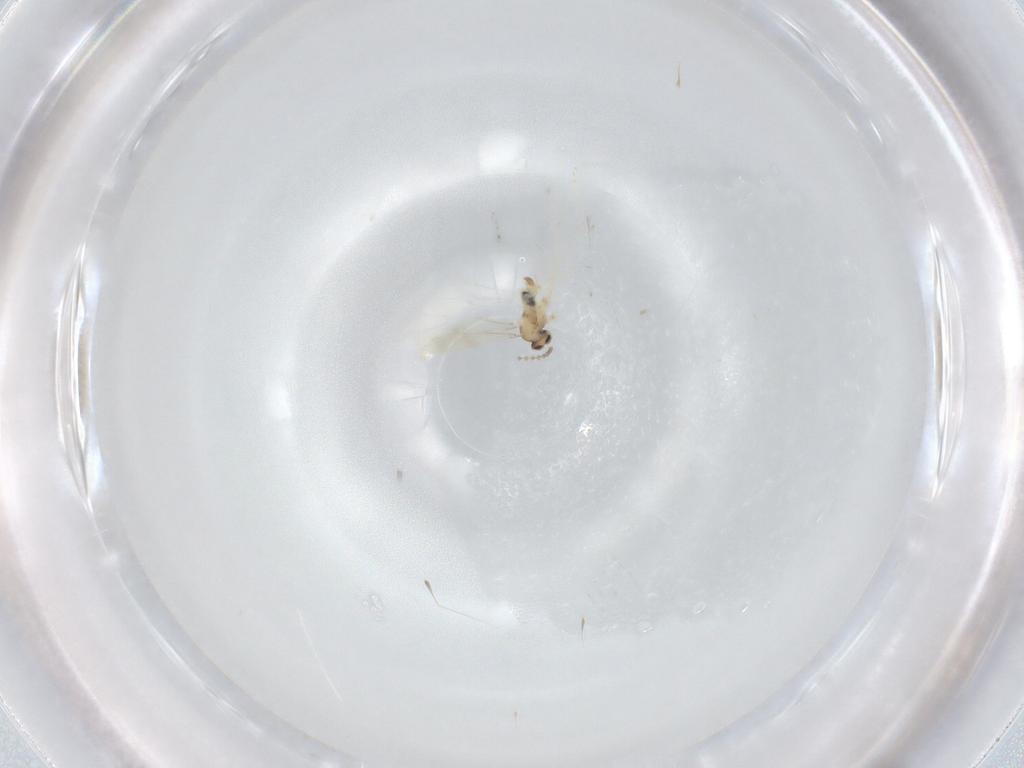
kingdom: Animalia
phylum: Arthropoda
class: Insecta
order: Diptera
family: Cecidomyiidae
